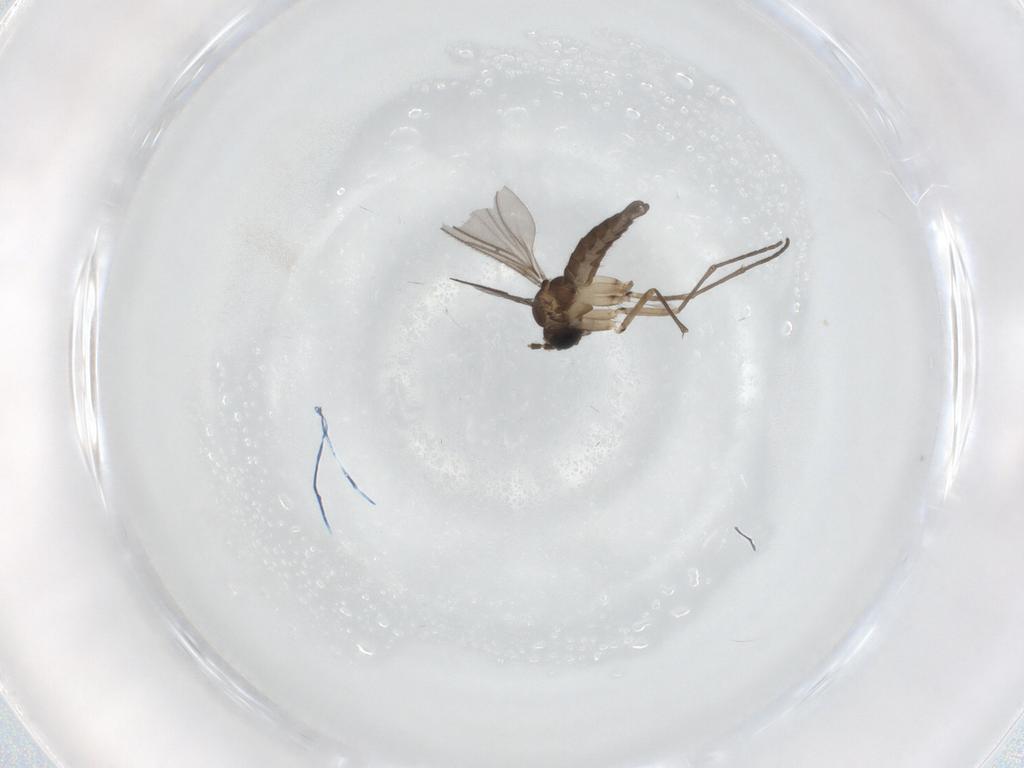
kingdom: Animalia
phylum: Arthropoda
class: Insecta
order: Diptera
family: Sciaridae
